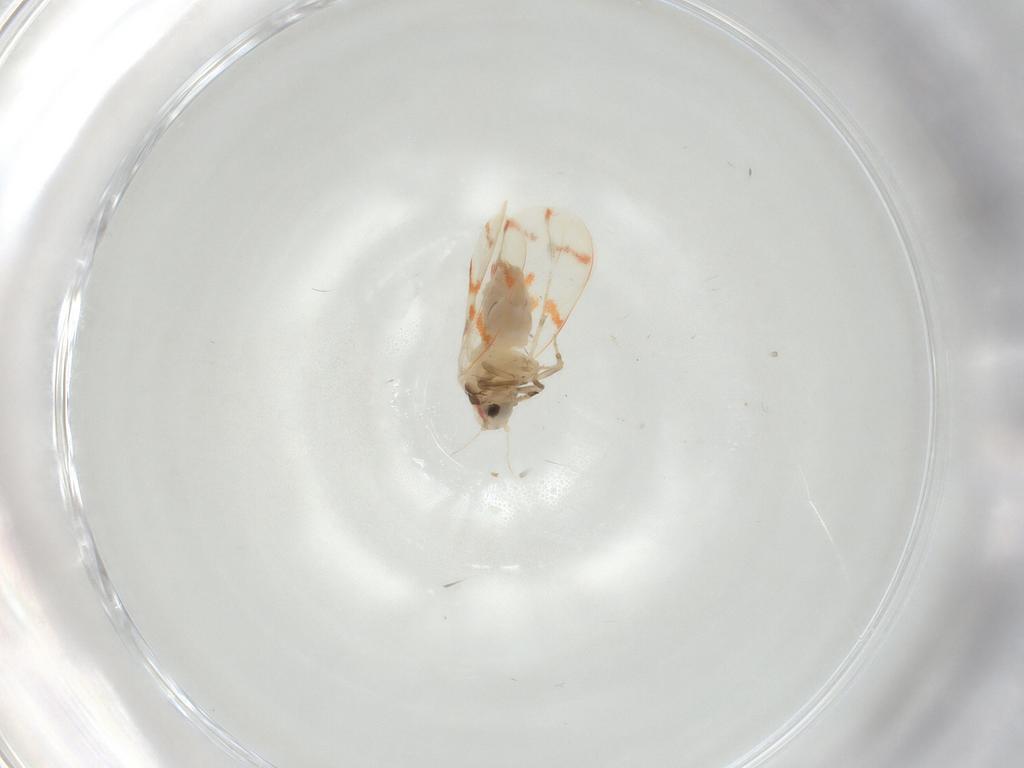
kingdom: Animalia
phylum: Arthropoda
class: Insecta
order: Hemiptera
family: Aleyrodidae
